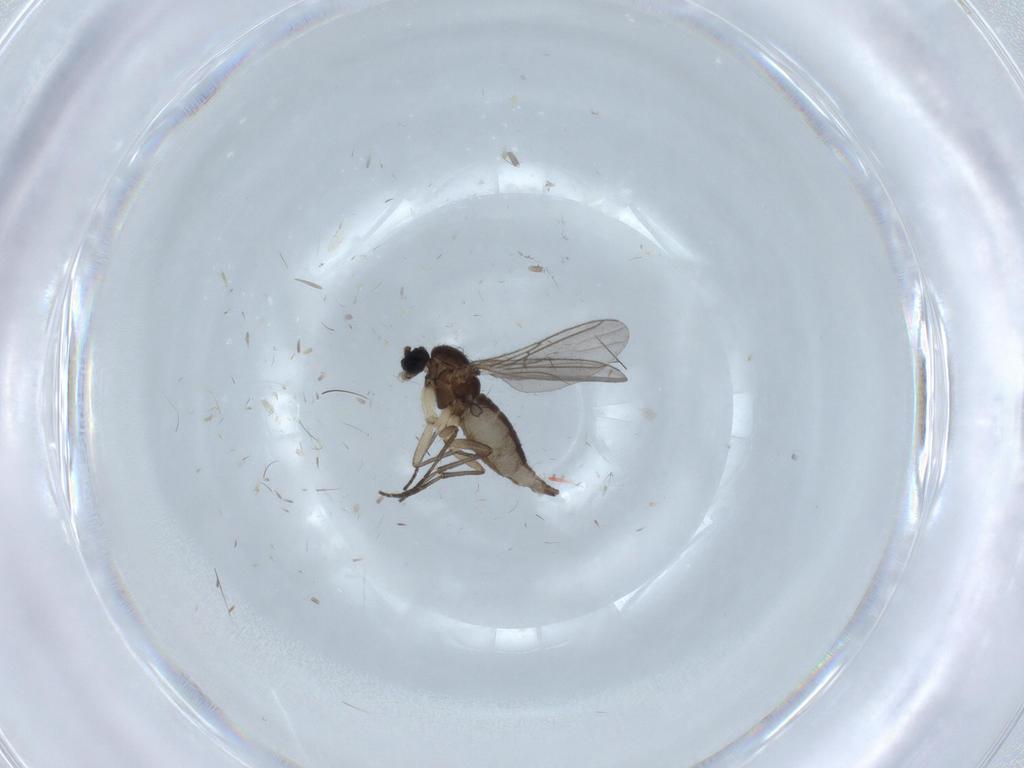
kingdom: Animalia
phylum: Arthropoda
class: Insecta
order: Diptera
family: Sciaridae
